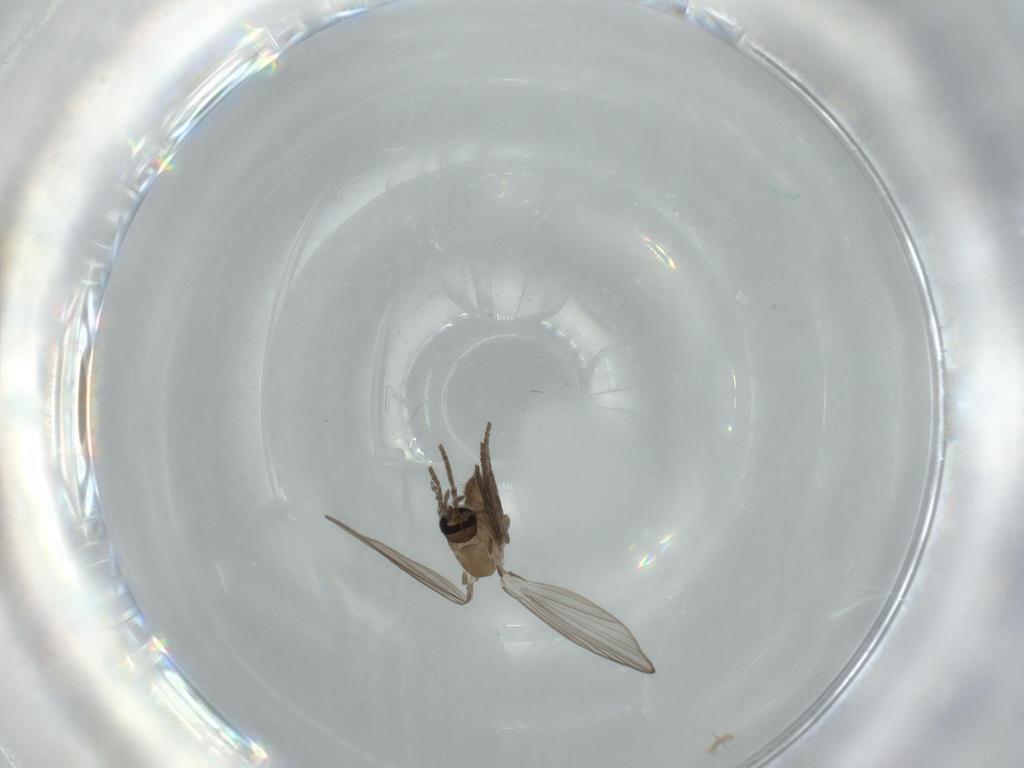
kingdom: Animalia
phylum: Arthropoda
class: Insecta
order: Diptera
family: Psychodidae
